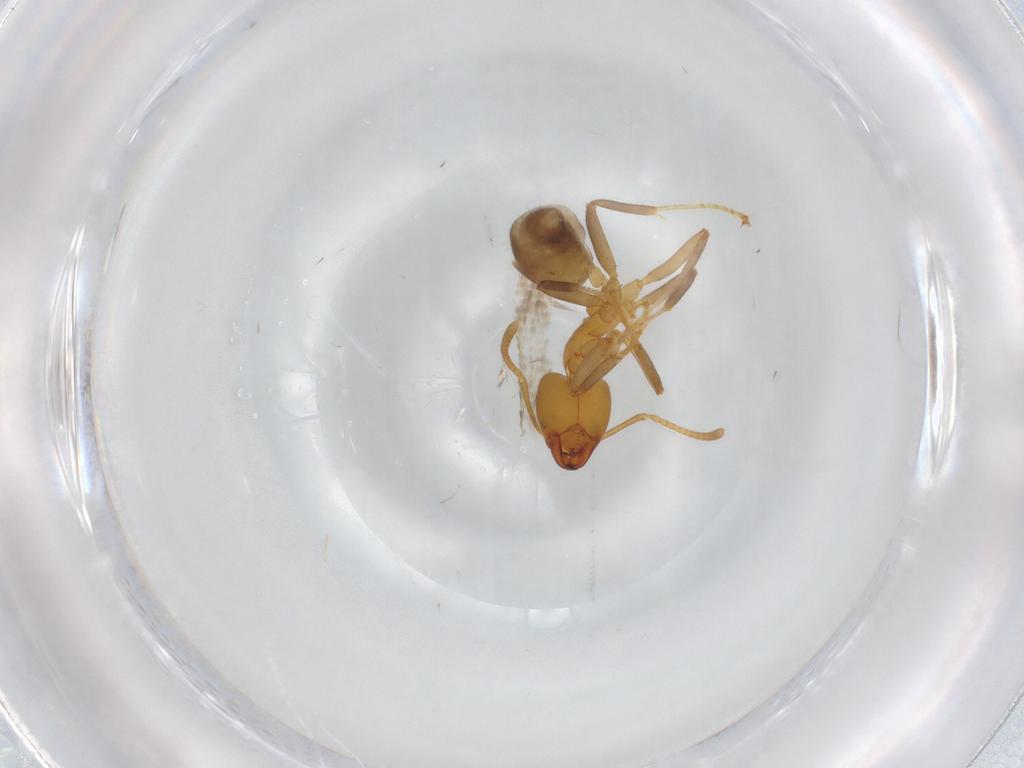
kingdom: Animalia
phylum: Arthropoda
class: Insecta
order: Hymenoptera
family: Formicidae
